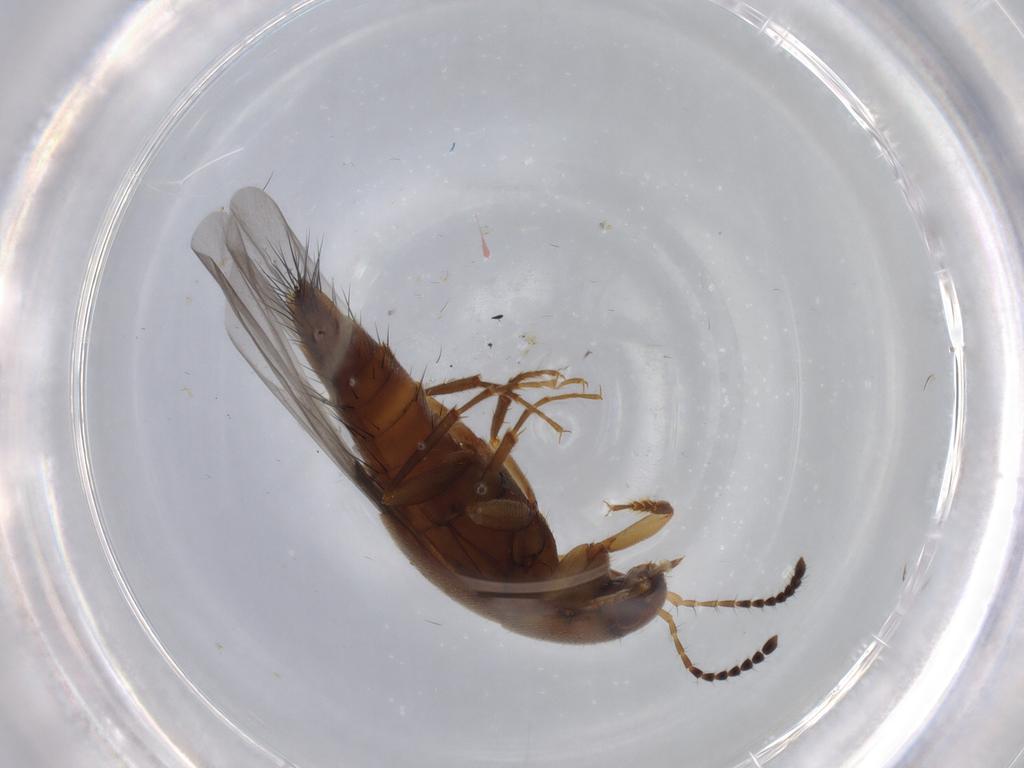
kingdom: Animalia
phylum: Arthropoda
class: Insecta
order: Coleoptera
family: Staphylinidae
